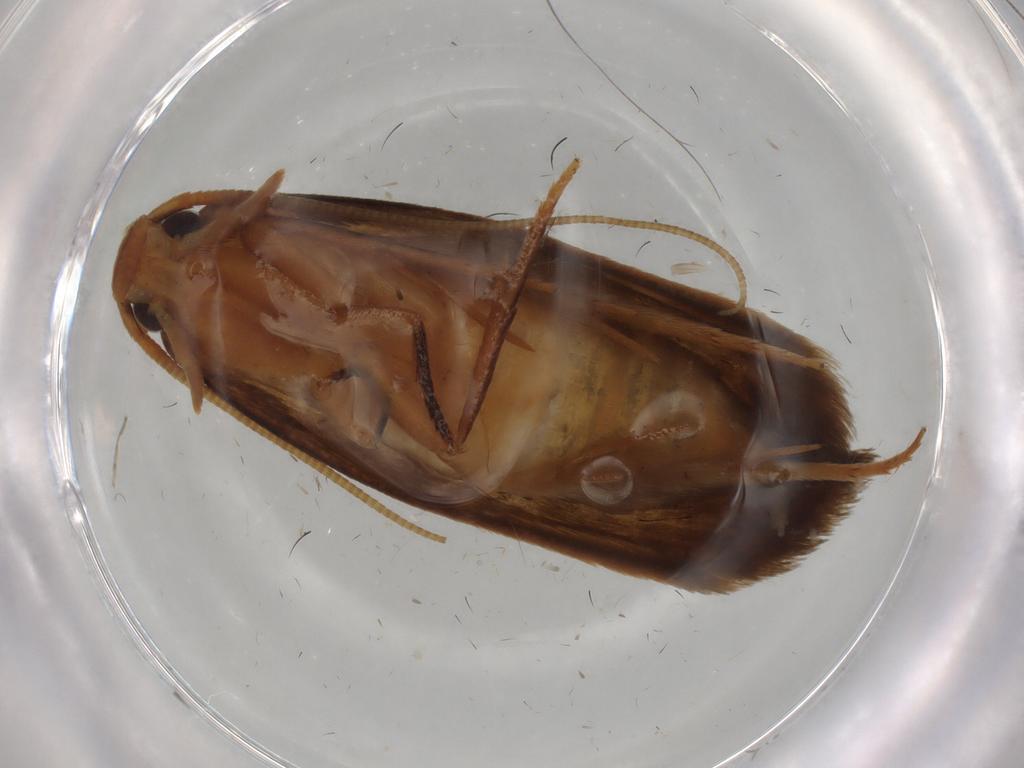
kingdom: Animalia
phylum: Arthropoda
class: Insecta
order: Lepidoptera
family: Tineidae
